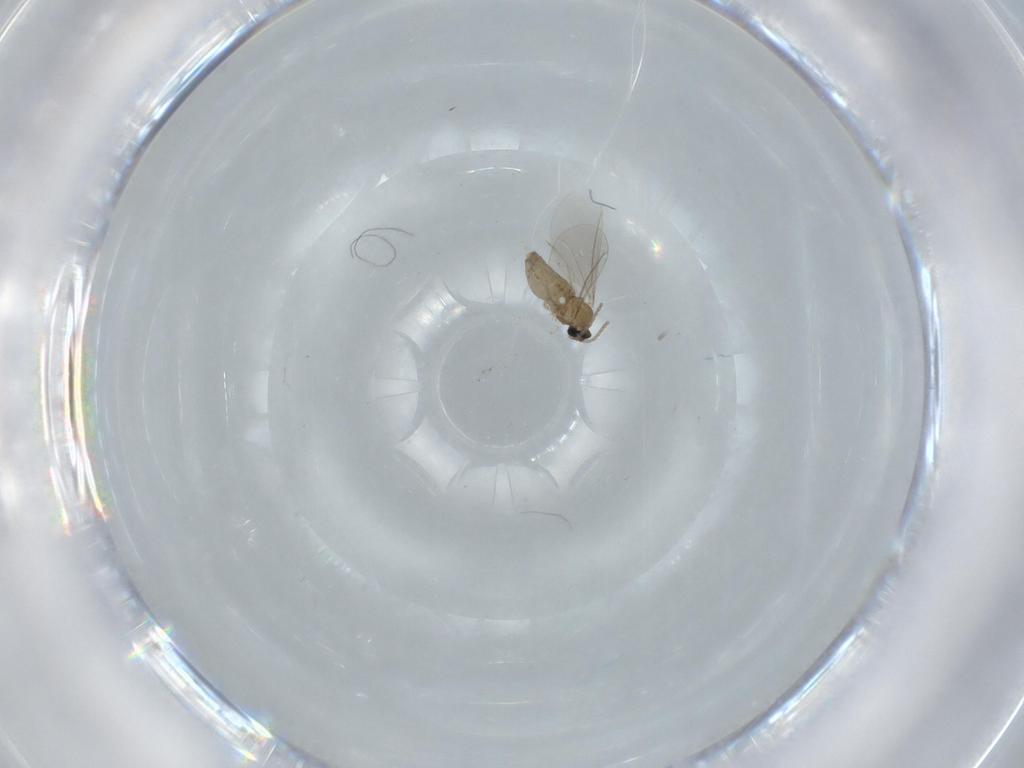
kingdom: Animalia
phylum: Arthropoda
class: Insecta
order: Diptera
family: Cecidomyiidae
